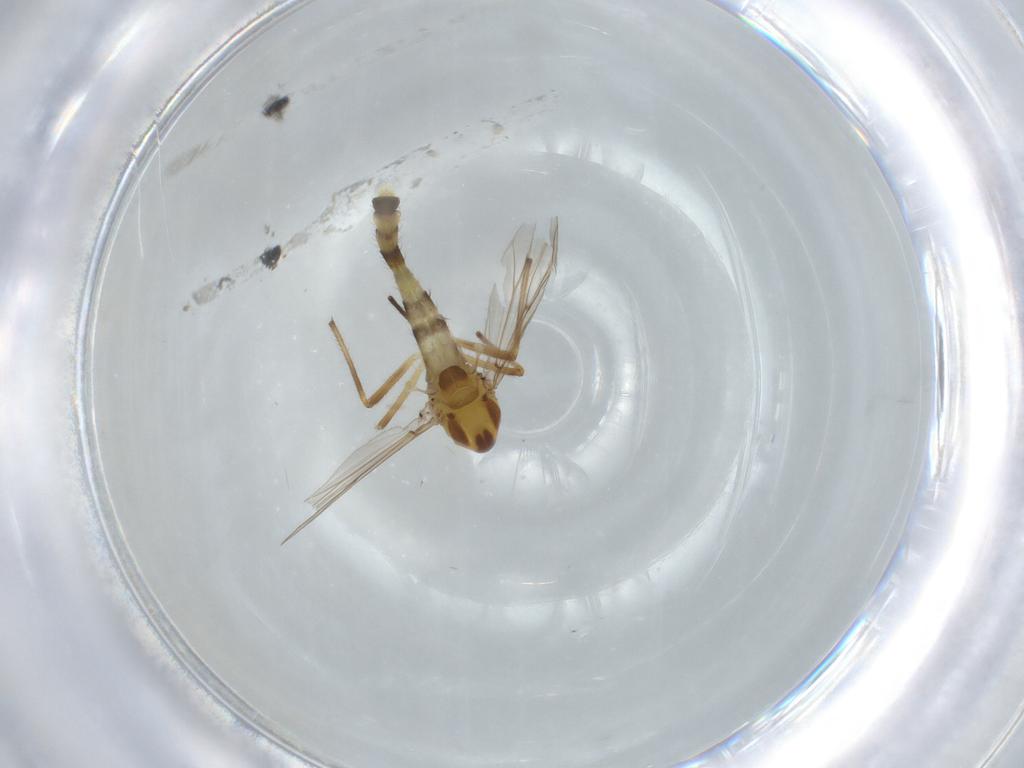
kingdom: Animalia
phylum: Arthropoda
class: Insecta
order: Diptera
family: Chironomidae
